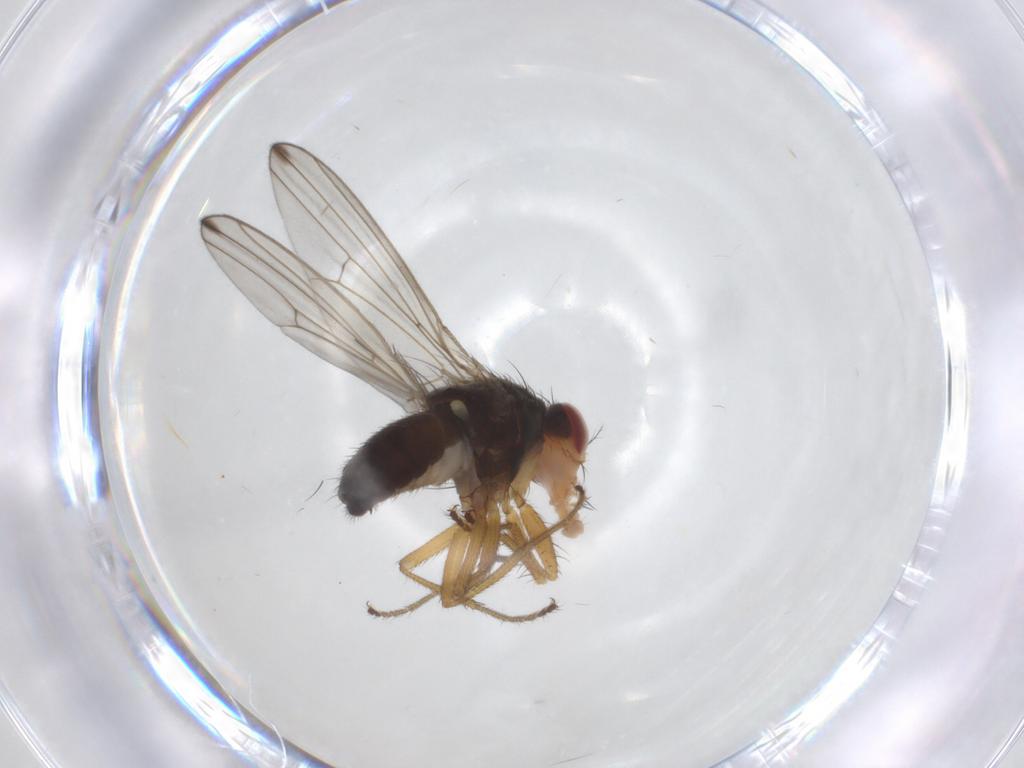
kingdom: Animalia
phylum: Arthropoda
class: Insecta
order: Diptera
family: Drosophilidae
